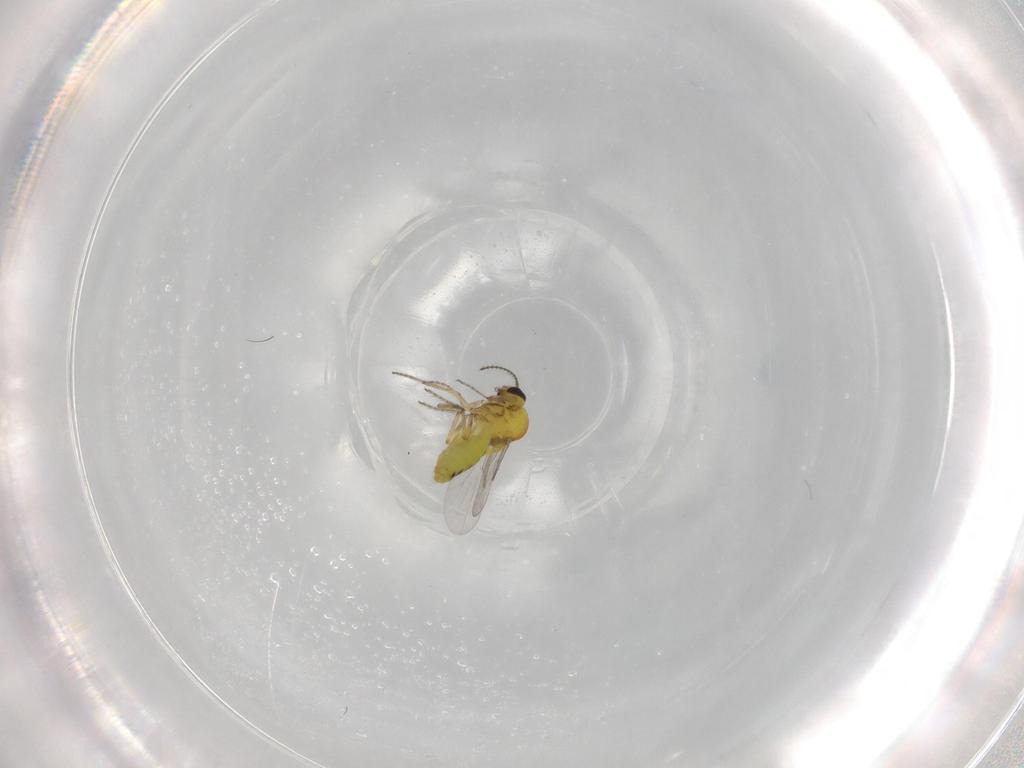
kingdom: Animalia
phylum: Arthropoda
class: Insecta
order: Diptera
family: Ceratopogonidae
